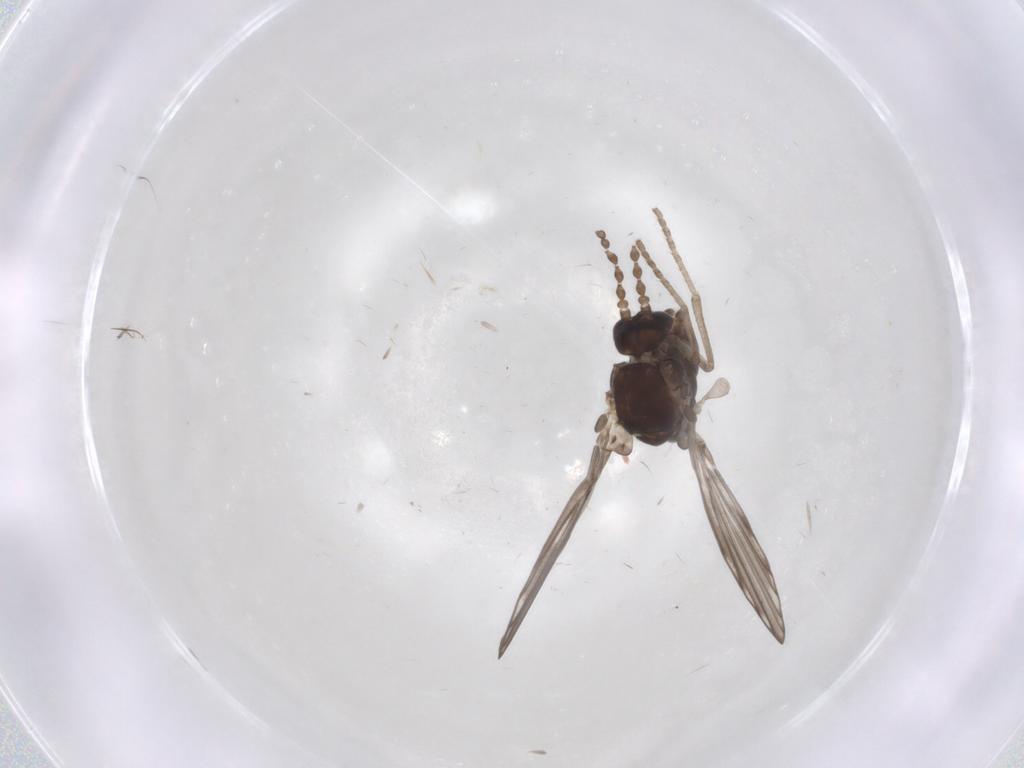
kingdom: Animalia
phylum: Arthropoda
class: Insecta
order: Diptera
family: Psychodidae
